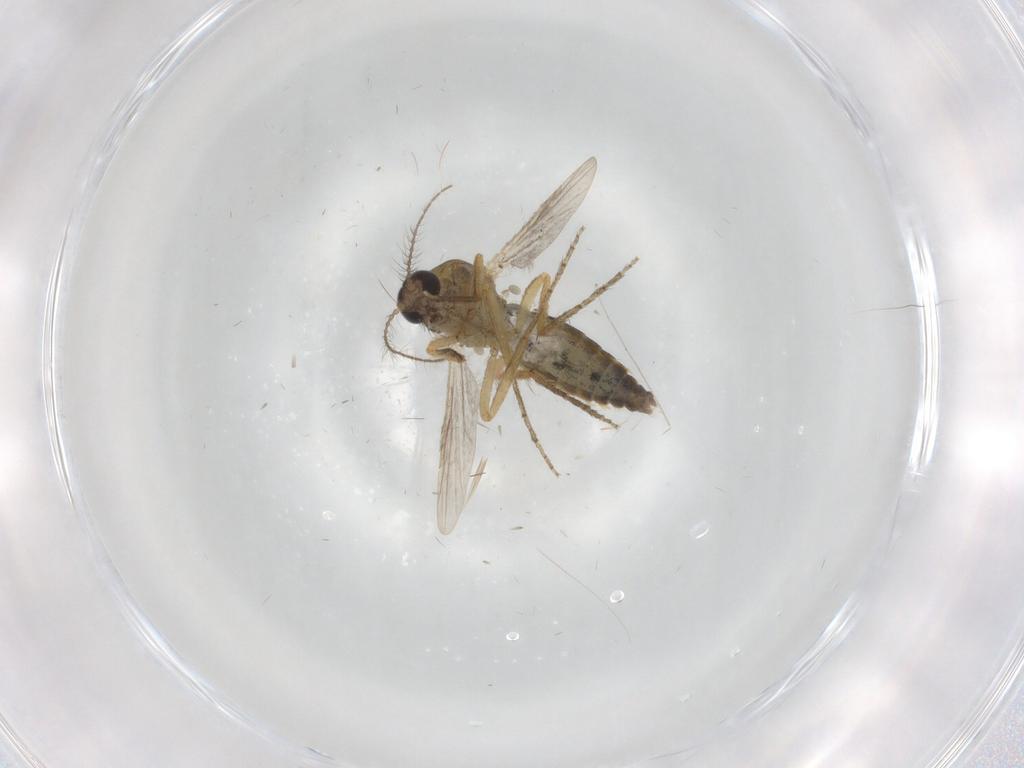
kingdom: Animalia
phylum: Arthropoda
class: Insecta
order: Diptera
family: Ceratopogonidae
